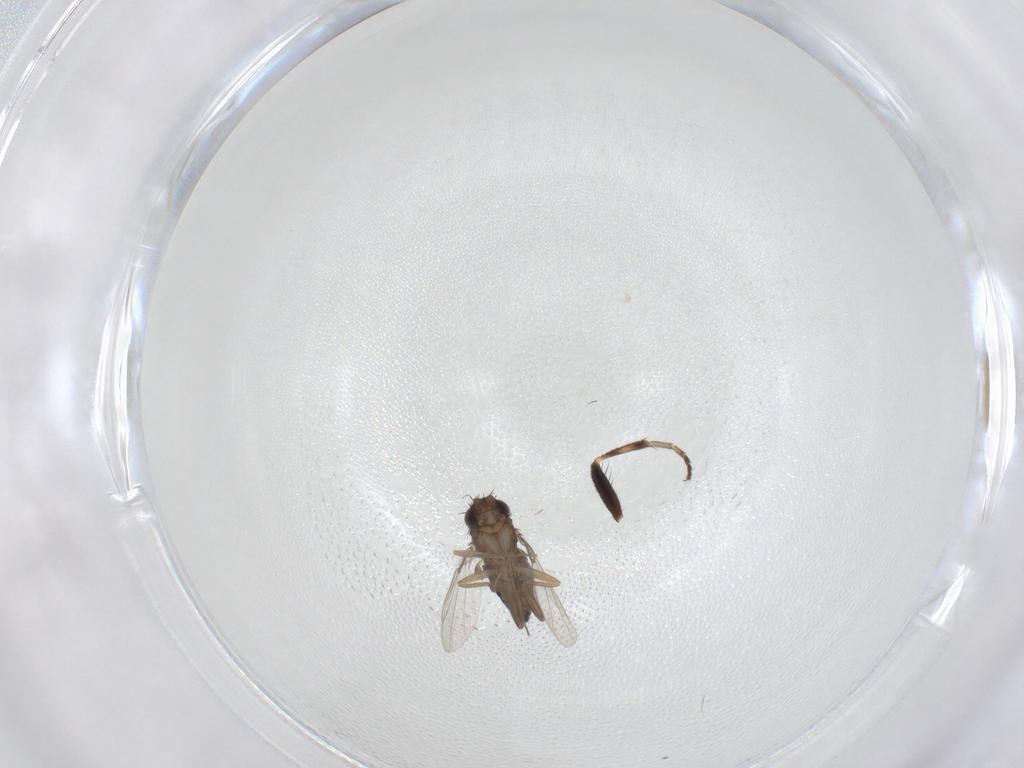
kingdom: Animalia
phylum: Arthropoda
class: Insecta
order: Diptera
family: Phoridae
